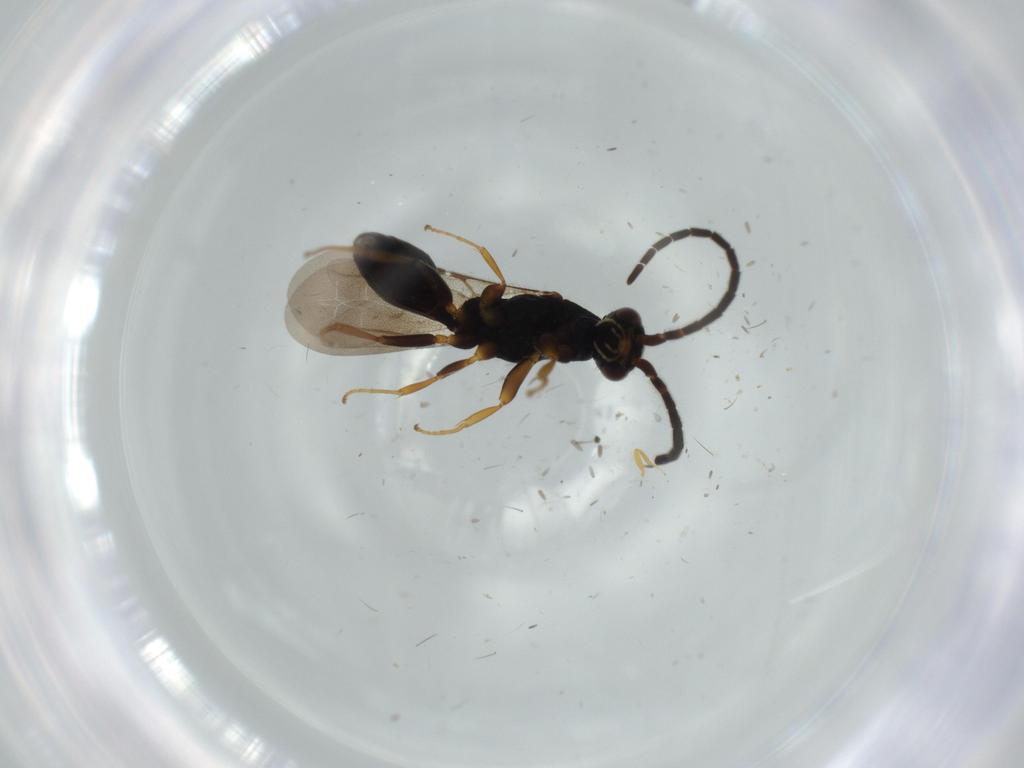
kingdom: Animalia
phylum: Arthropoda
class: Insecta
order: Hymenoptera
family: Bethylidae
